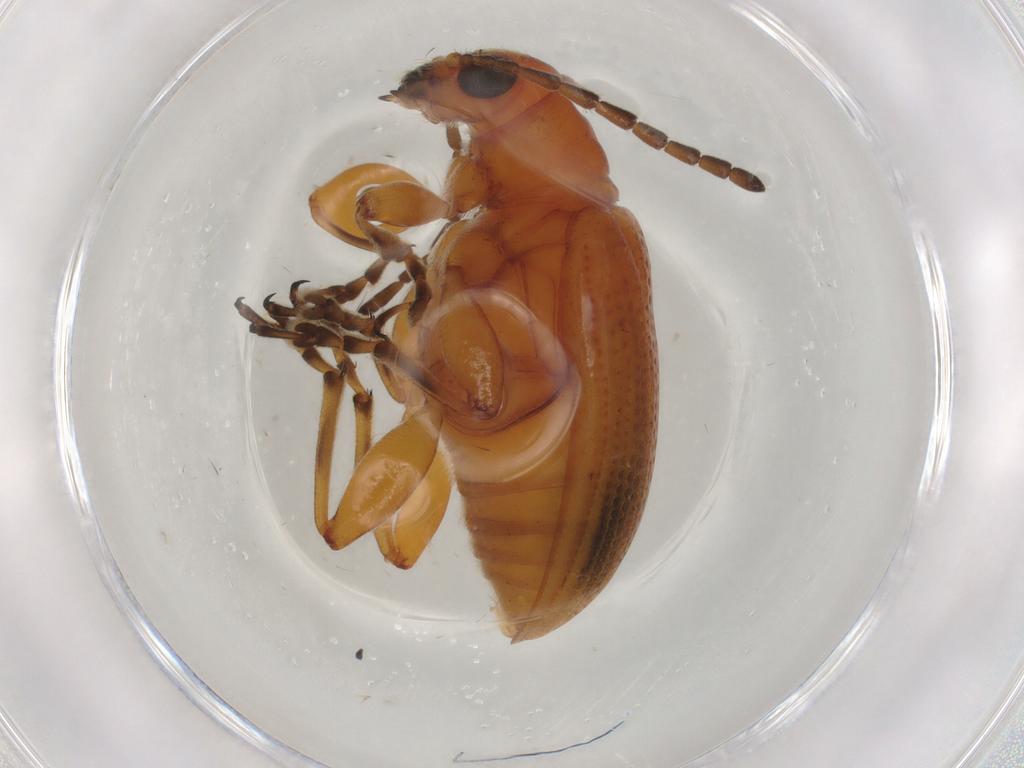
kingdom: Animalia
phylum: Arthropoda
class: Insecta
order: Coleoptera
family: Chrysomelidae
